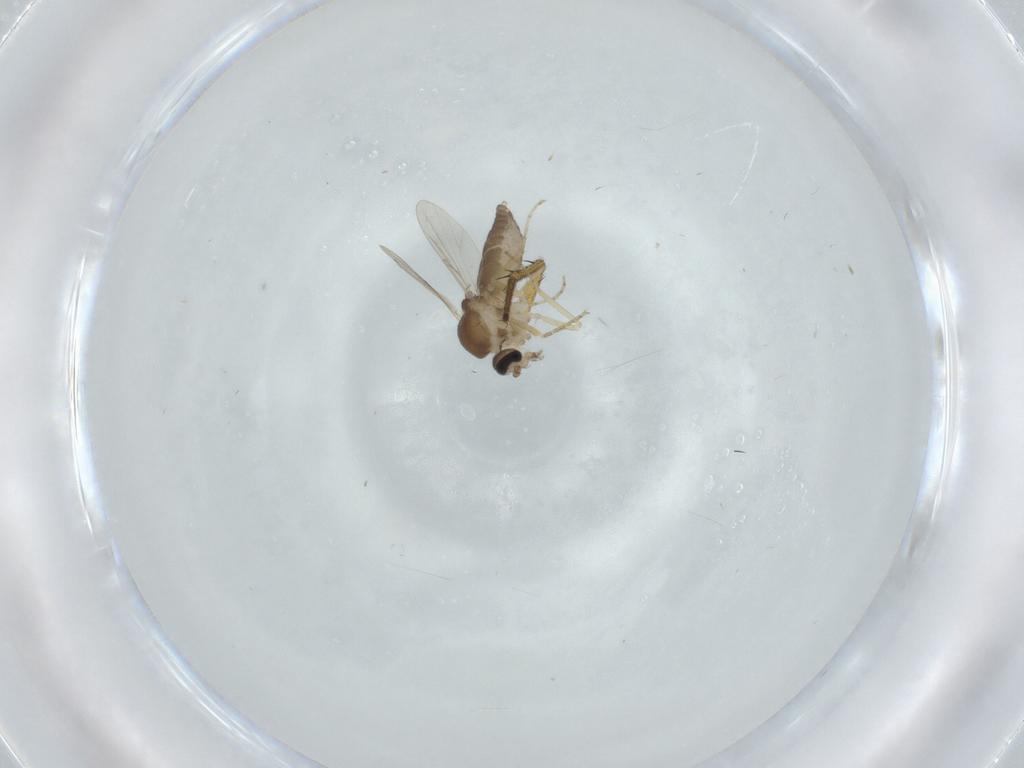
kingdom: Animalia
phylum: Arthropoda
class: Insecta
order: Diptera
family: Ceratopogonidae
